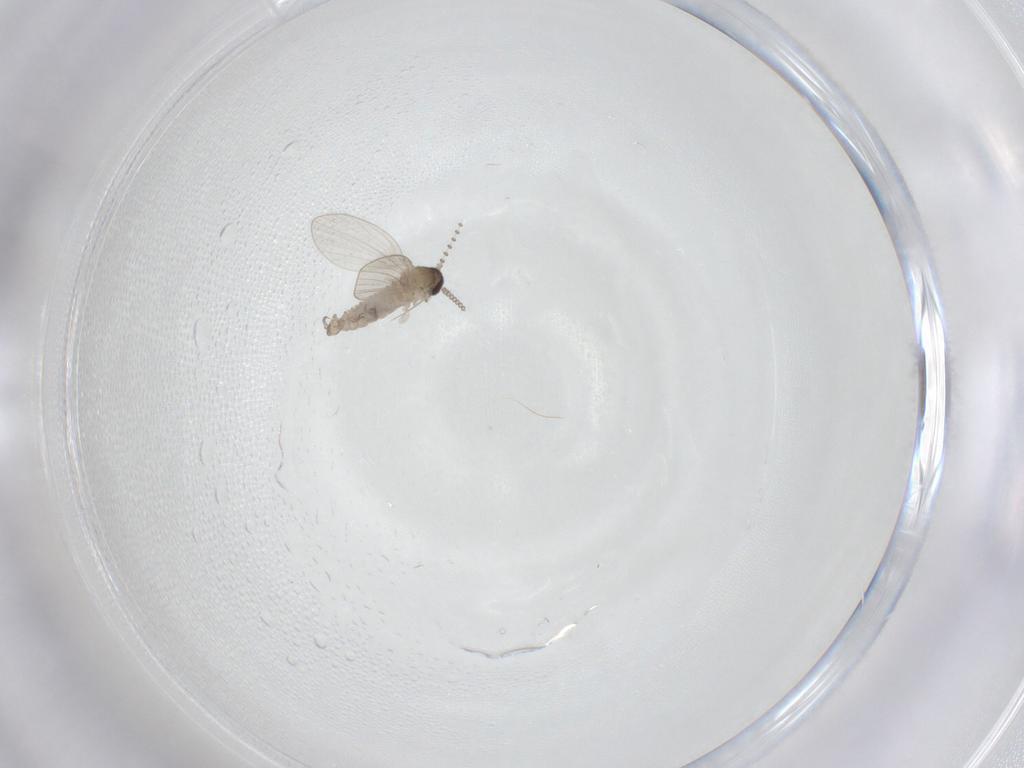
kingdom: Animalia
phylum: Arthropoda
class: Insecta
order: Diptera
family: Psychodidae
